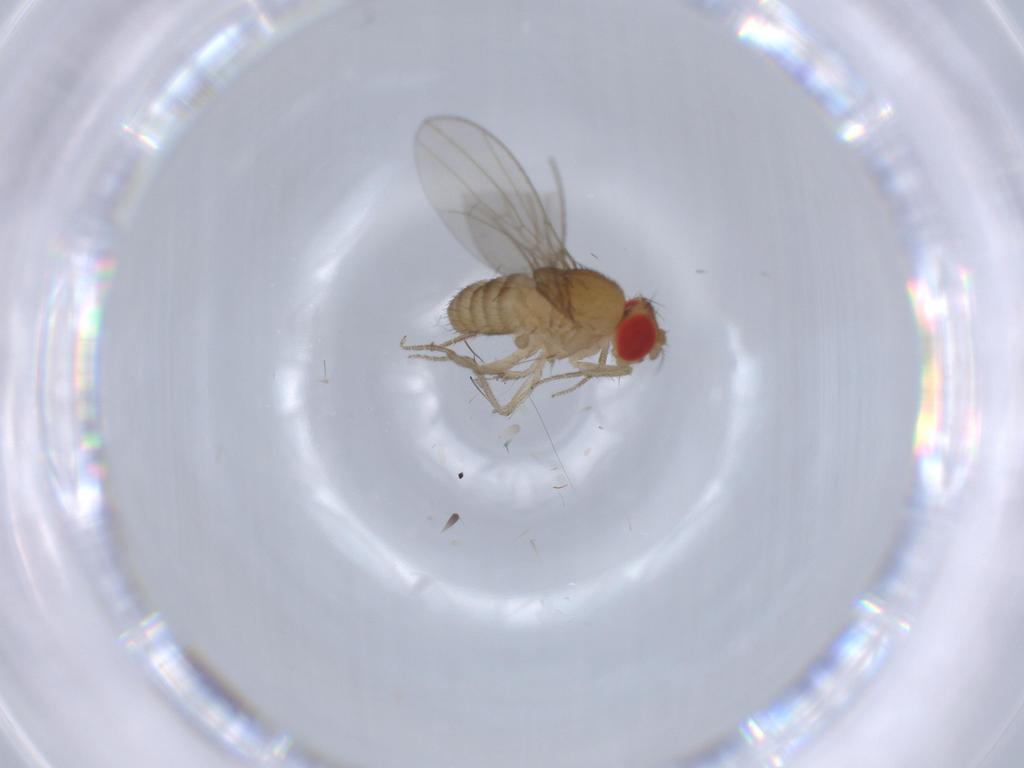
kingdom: Animalia
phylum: Arthropoda
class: Insecta
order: Diptera
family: Drosophilidae
